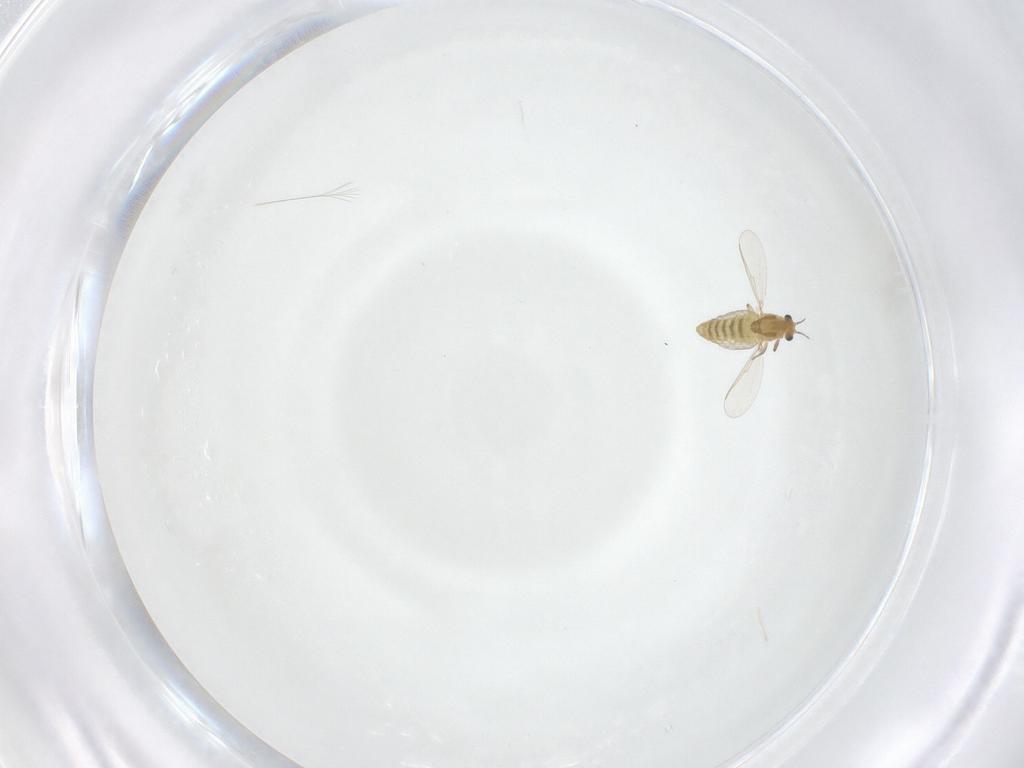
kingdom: Animalia
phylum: Arthropoda
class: Insecta
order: Diptera
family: Chironomidae
